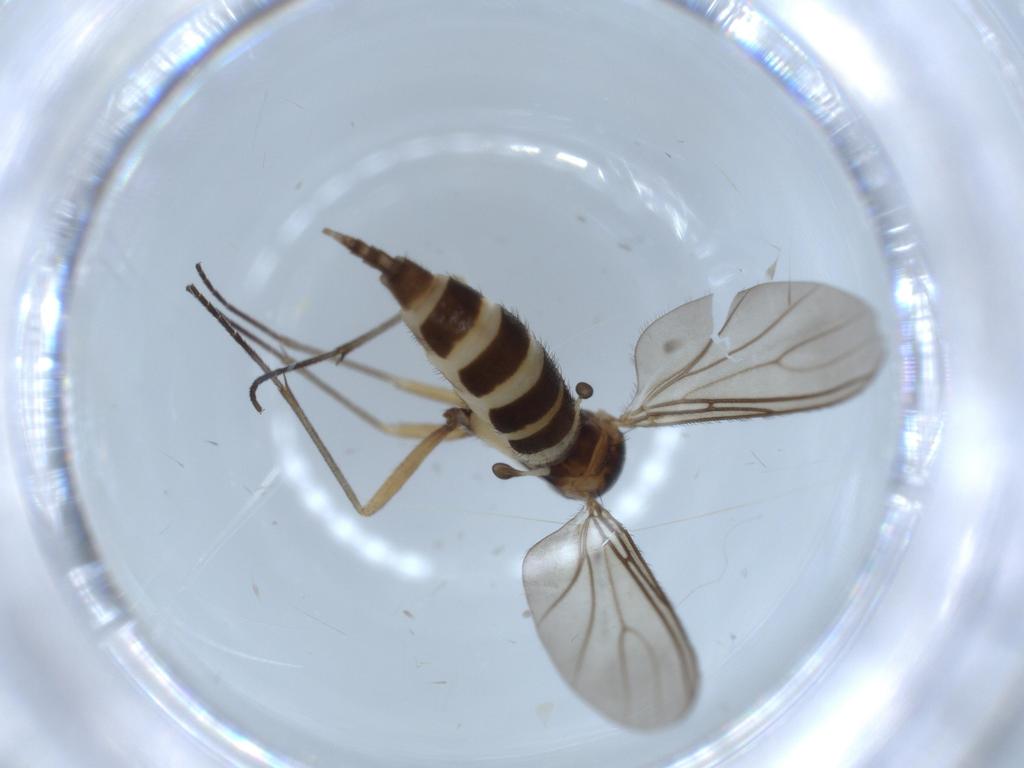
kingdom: Animalia
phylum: Arthropoda
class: Insecta
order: Diptera
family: Sciaridae
